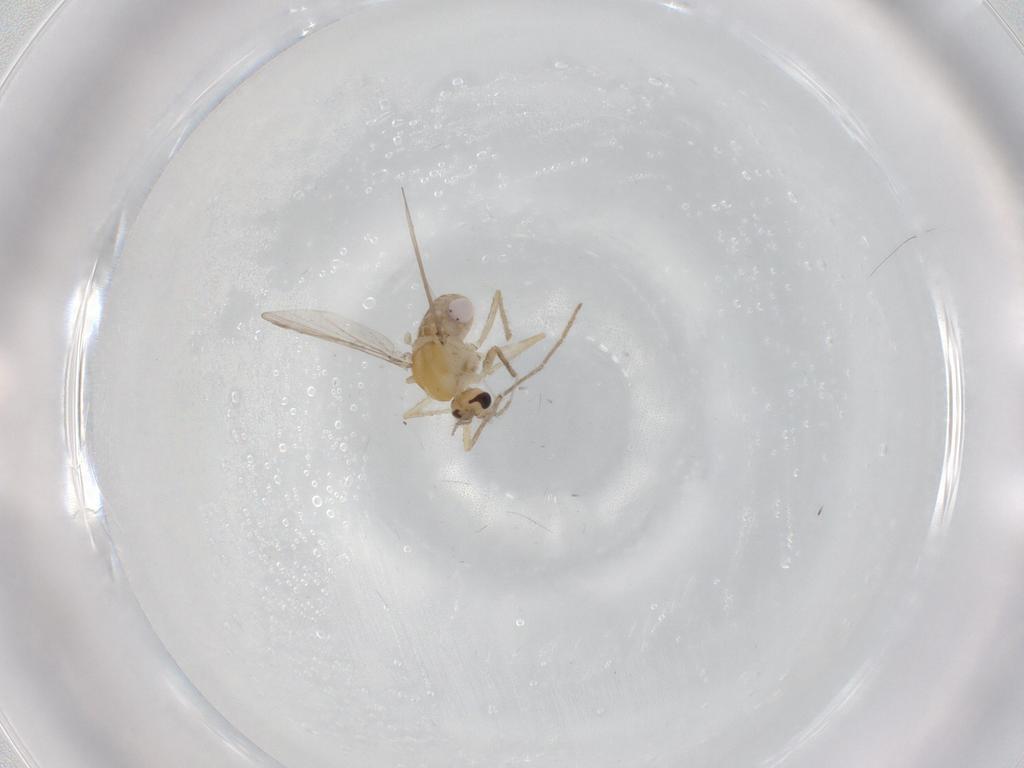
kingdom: Animalia
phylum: Arthropoda
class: Insecta
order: Diptera
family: Chironomidae
